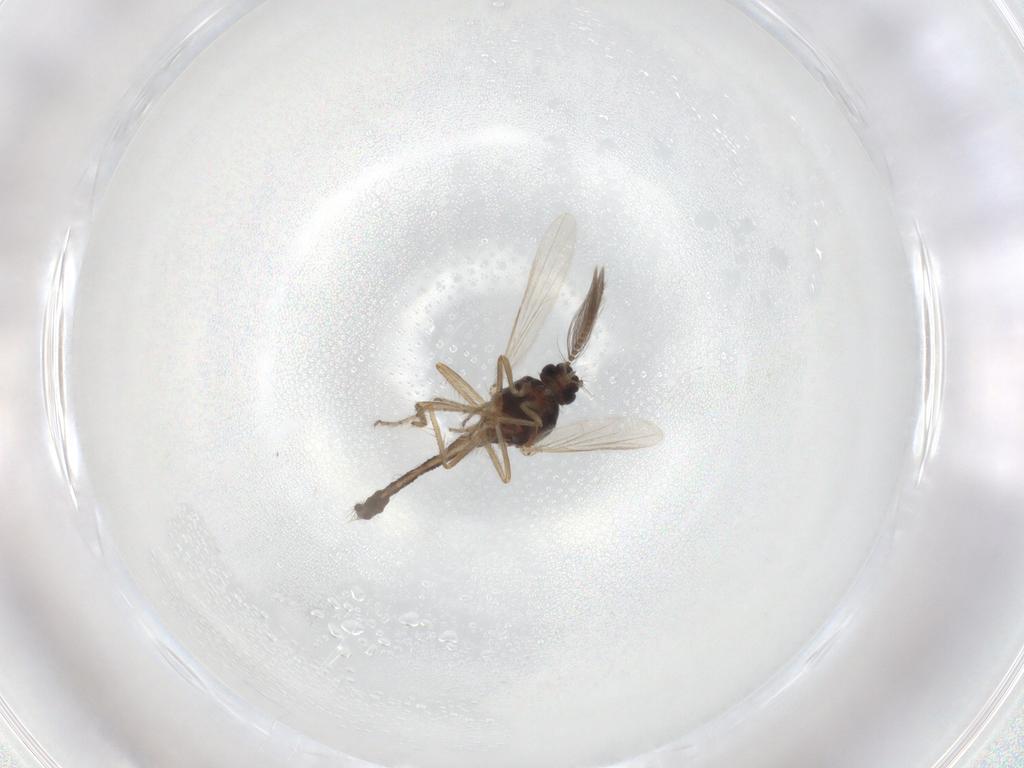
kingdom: Animalia
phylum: Arthropoda
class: Insecta
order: Diptera
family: Ceratopogonidae
